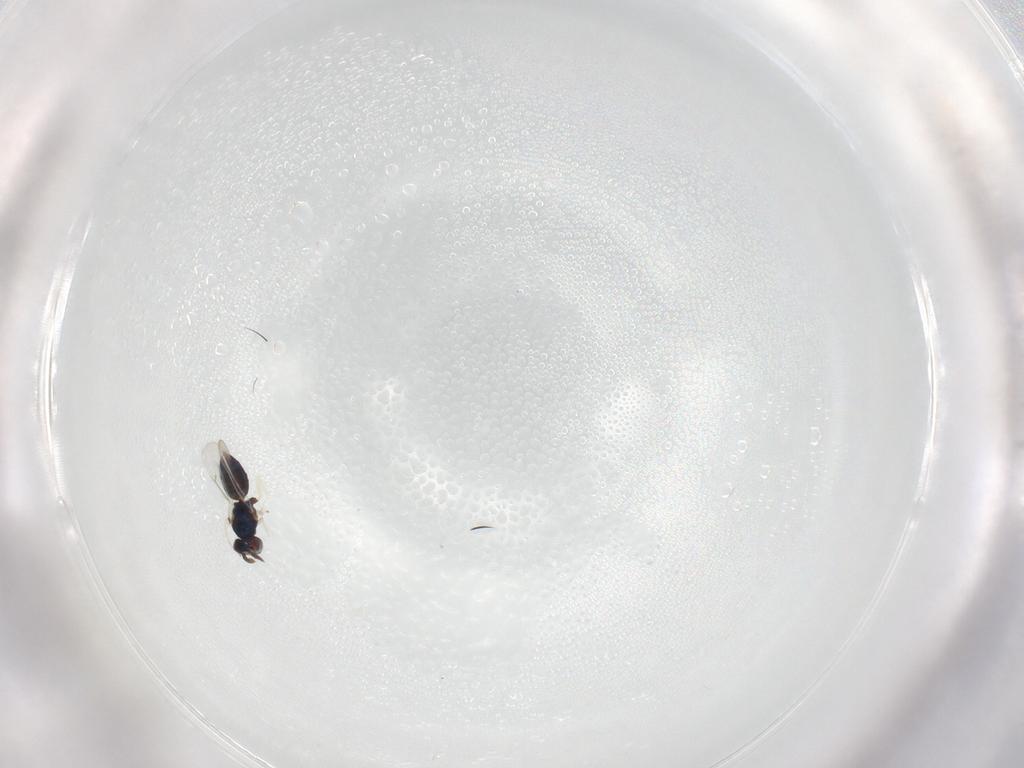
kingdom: Animalia
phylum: Arthropoda
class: Insecta
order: Hymenoptera
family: Eulophidae
